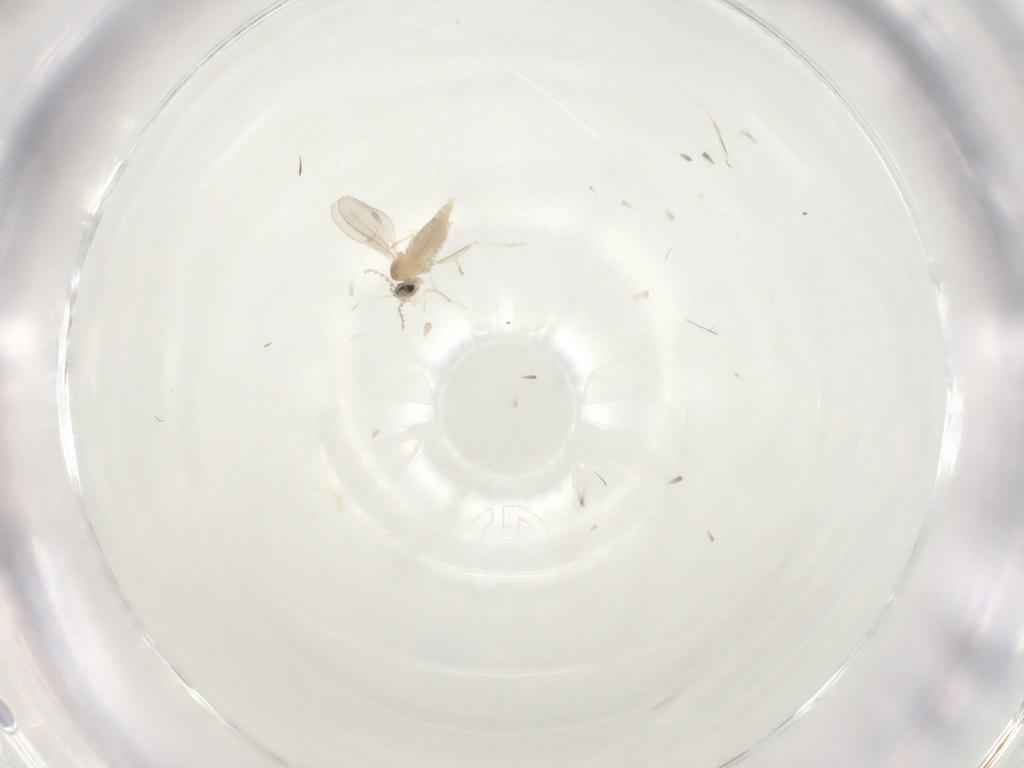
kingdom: Animalia
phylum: Arthropoda
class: Insecta
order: Diptera
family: Cecidomyiidae
